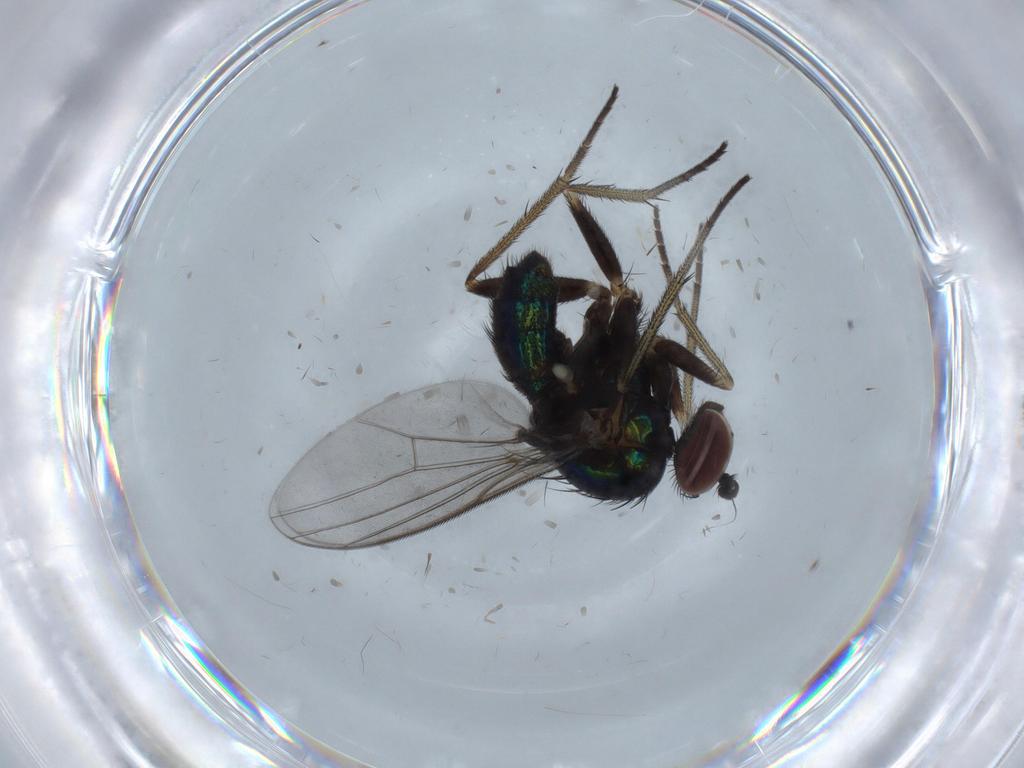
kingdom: Animalia
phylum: Arthropoda
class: Insecta
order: Diptera
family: Dolichopodidae
